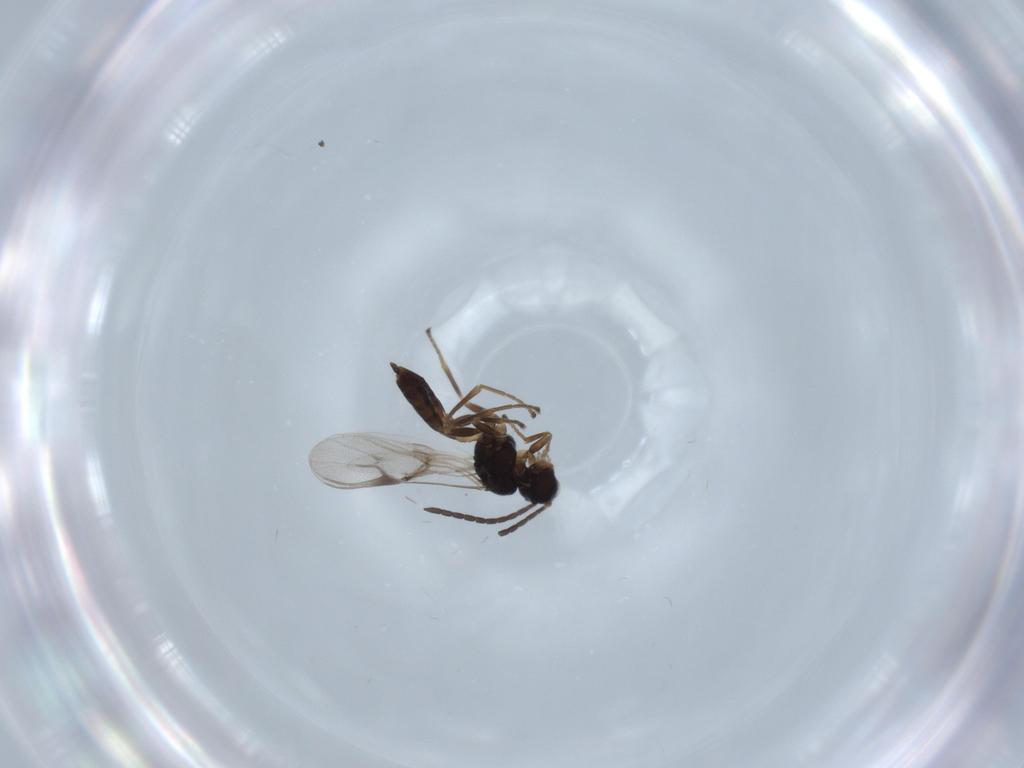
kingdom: Animalia
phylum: Arthropoda
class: Insecta
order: Hymenoptera
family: Braconidae
